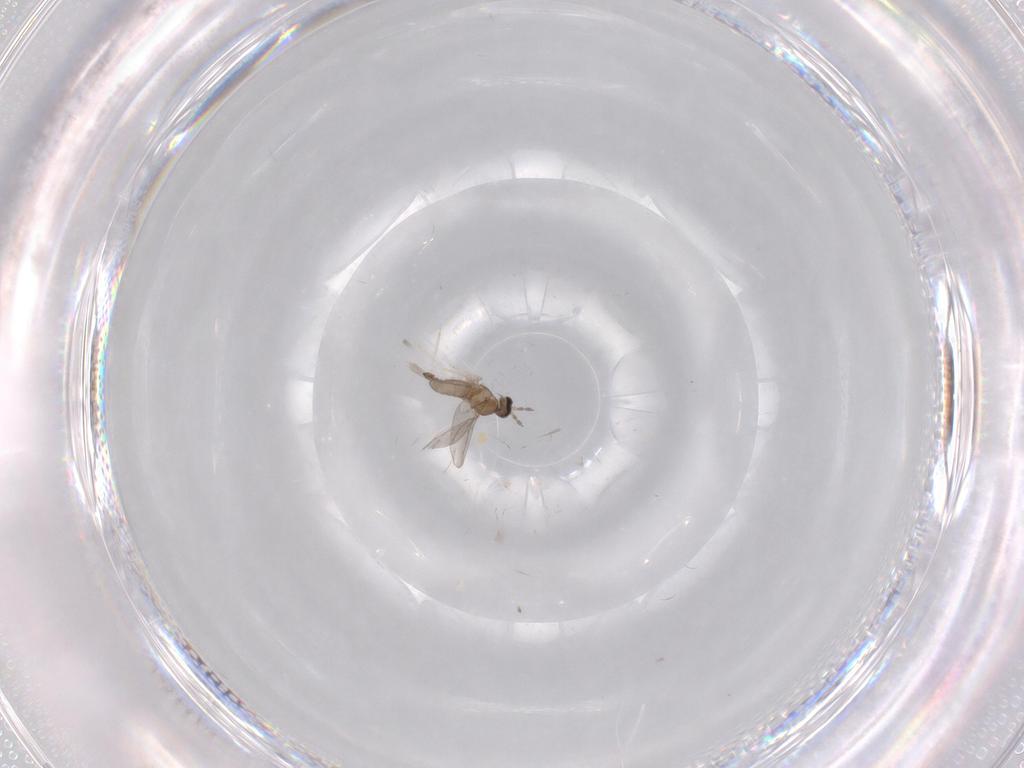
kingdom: Animalia
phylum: Arthropoda
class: Insecta
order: Diptera
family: Cecidomyiidae
